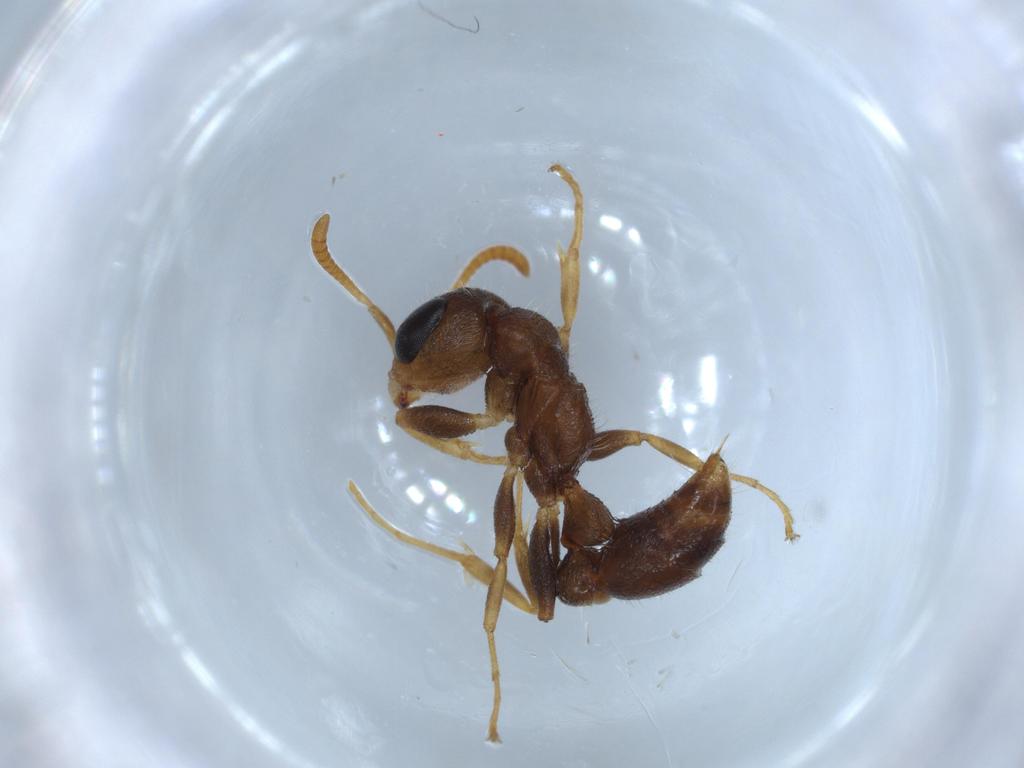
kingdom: Animalia
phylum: Arthropoda
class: Insecta
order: Hymenoptera
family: Formicidae
